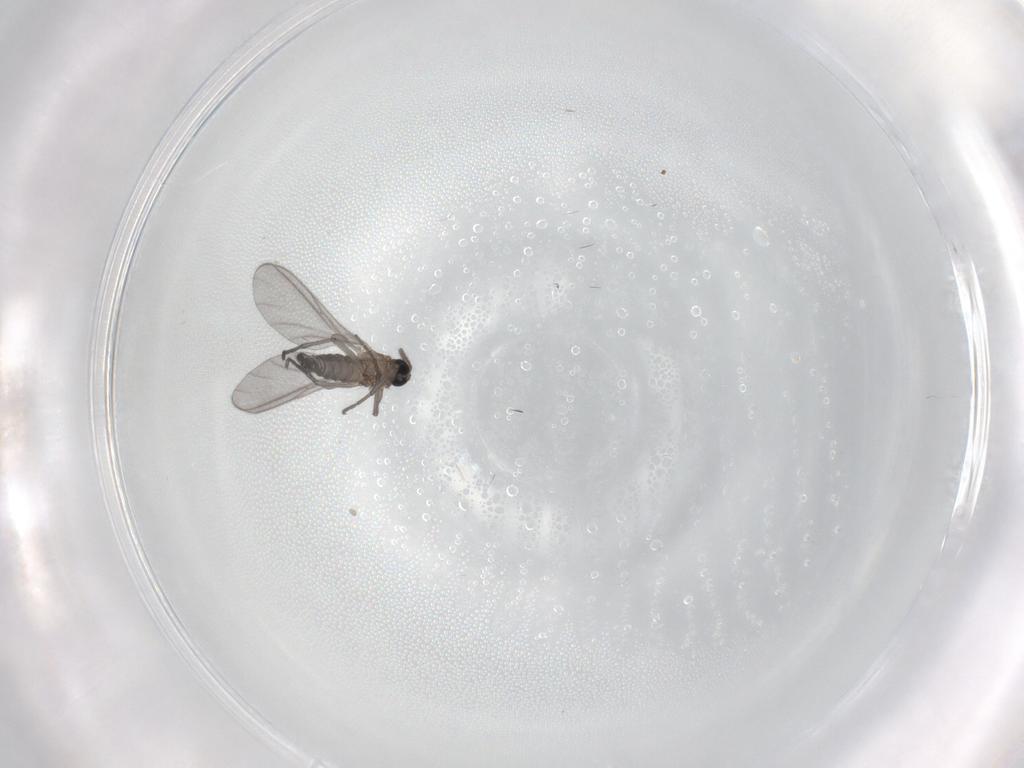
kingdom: Animalia
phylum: Arthropoda
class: Insecta
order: Diptera
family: Sciaridae
